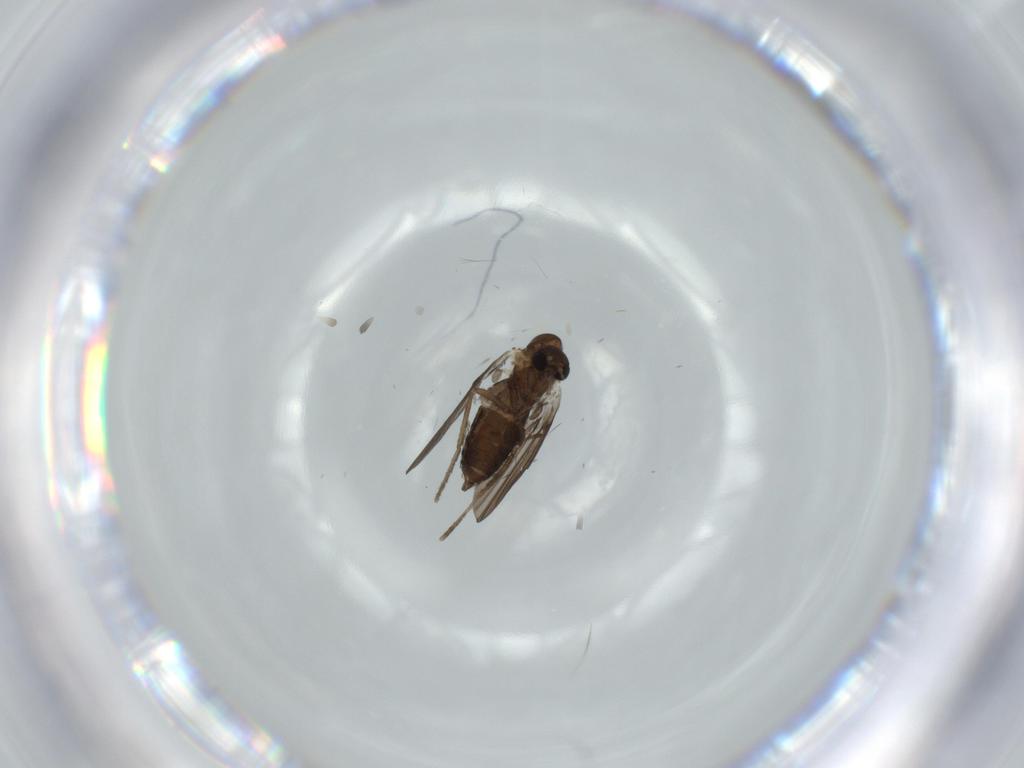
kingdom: Animalia
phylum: Arthropoda
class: Insecta
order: Diptera
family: Dolichopodidae
